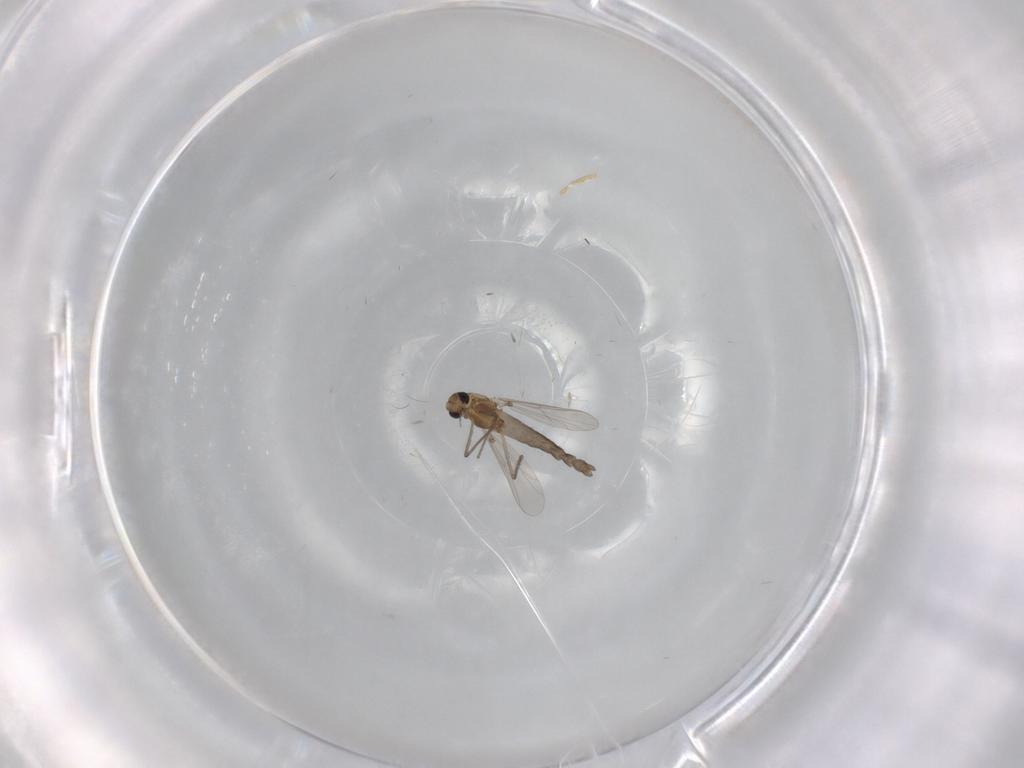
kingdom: Animalia
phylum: Arthropoda
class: Insecta
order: Diptera
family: Chironomidae
